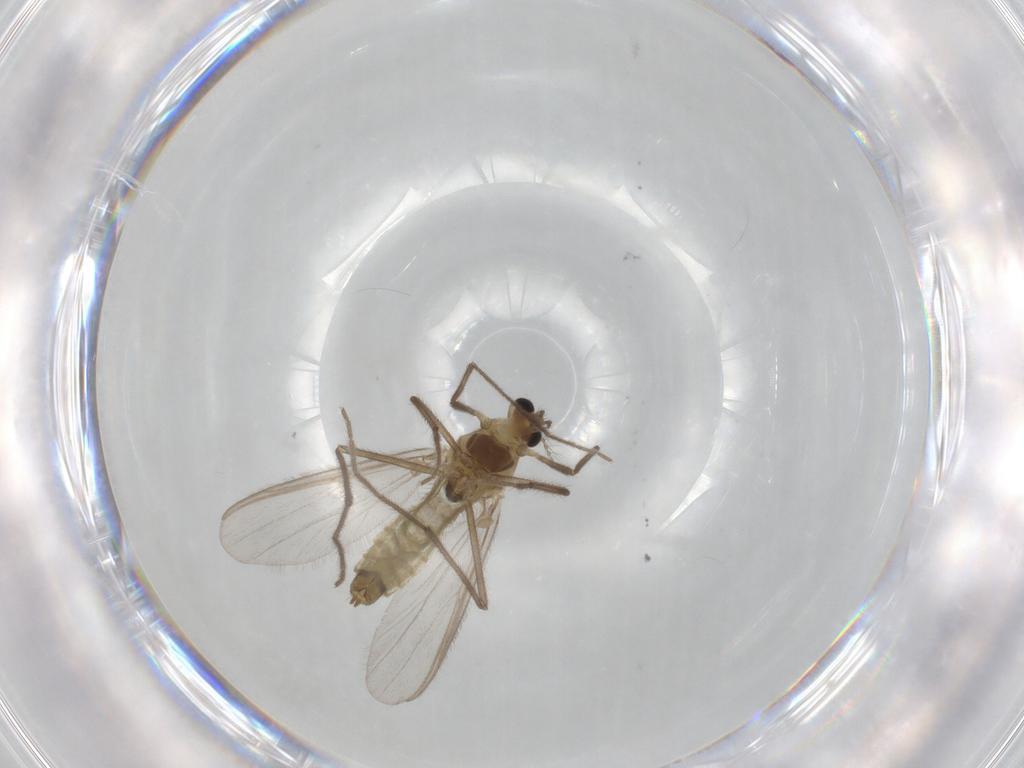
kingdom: Animalia
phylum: Arthropoda
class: Insecta
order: Diptera
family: Chironomidae
